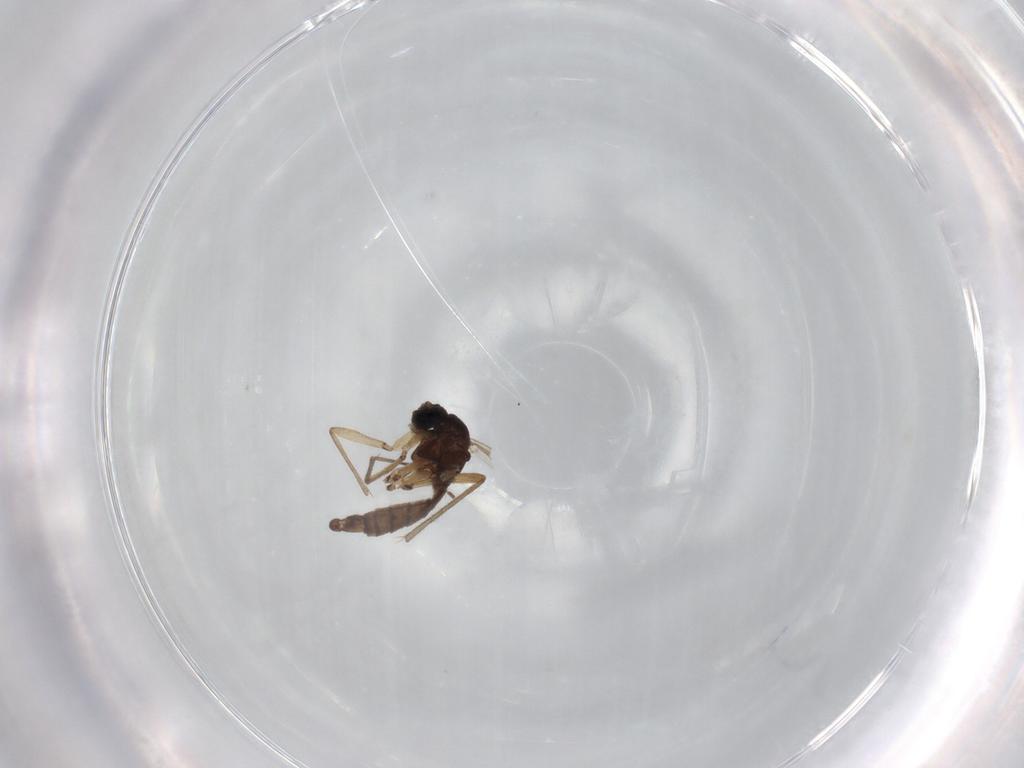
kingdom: Animalia
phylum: Arthropoda
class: Insecta
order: Diptera
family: Sciaridae
